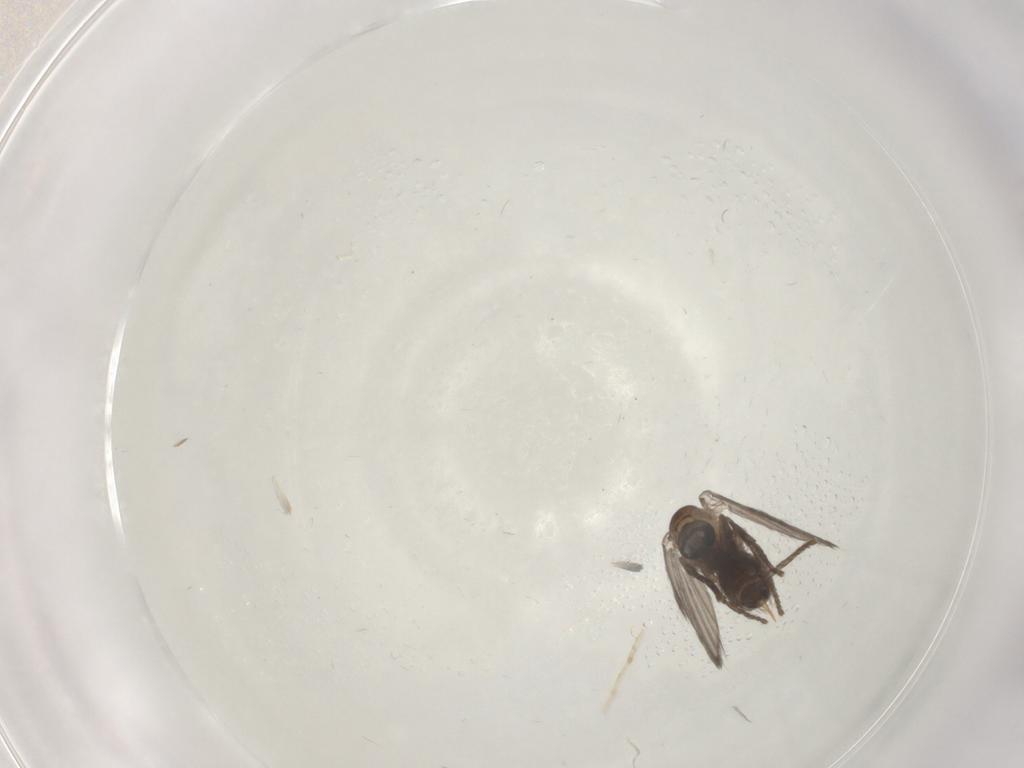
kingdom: Animalia
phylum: Arthropoda
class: Insecta
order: Diptera
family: Psychodidae
